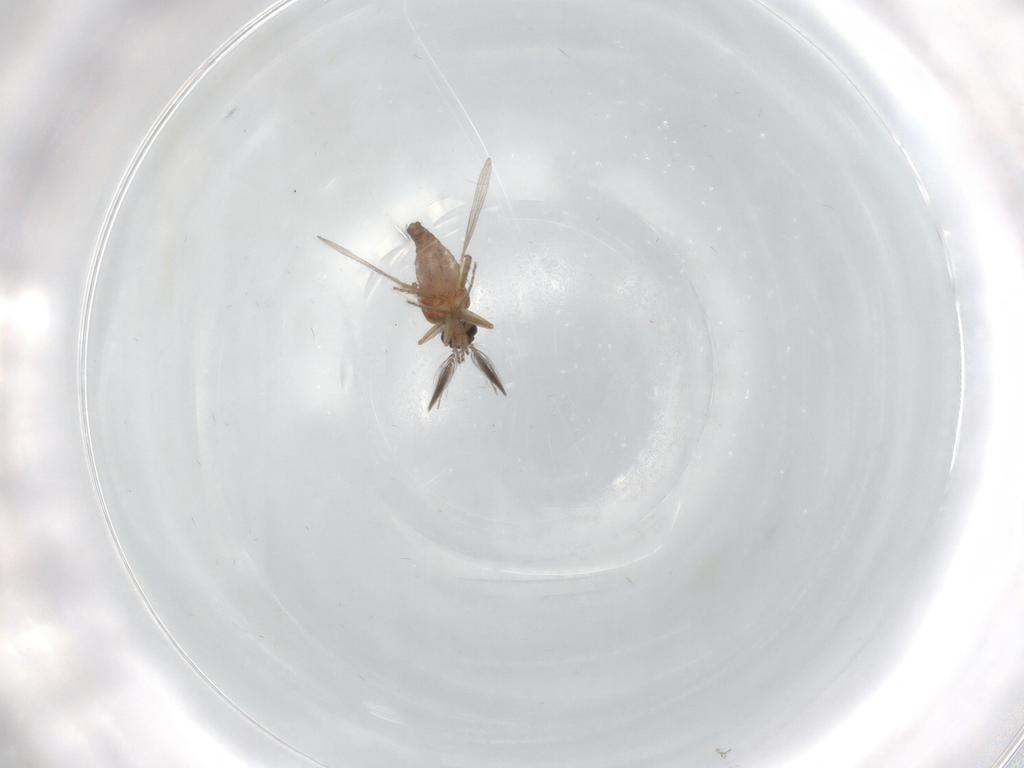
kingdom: Animalia
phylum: Arthropoda
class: Insecta
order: Diptera
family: Ceratopogonidae
